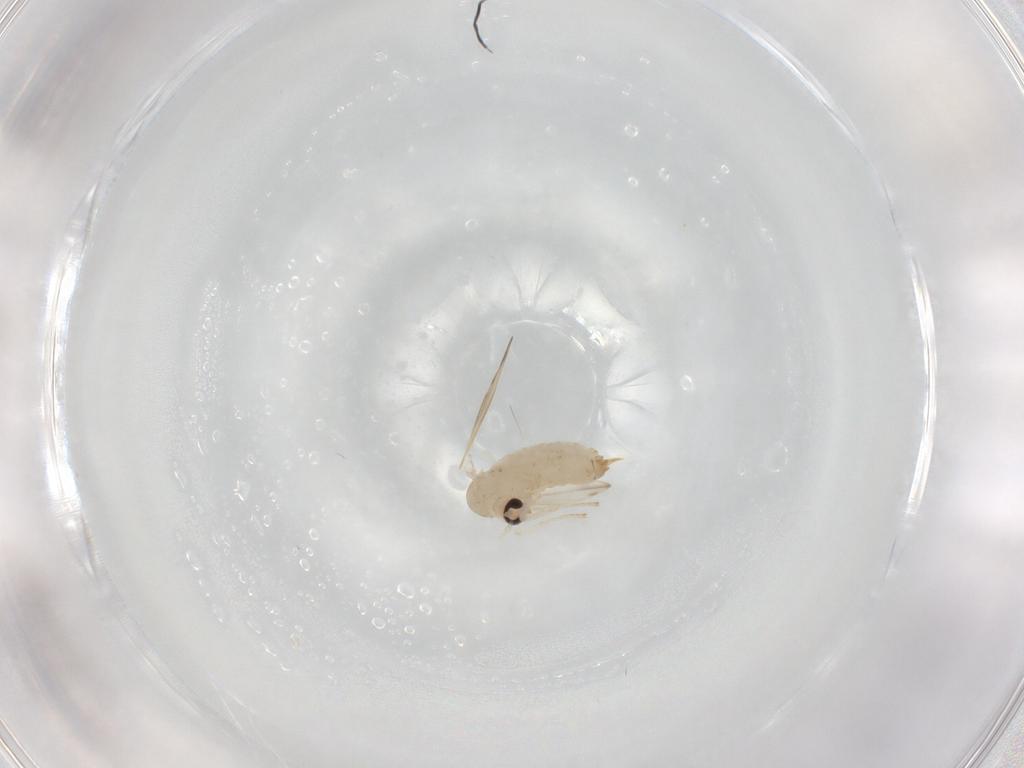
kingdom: Animalia
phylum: Arthropoda
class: Insecta
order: Diptera
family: Psychodidae
